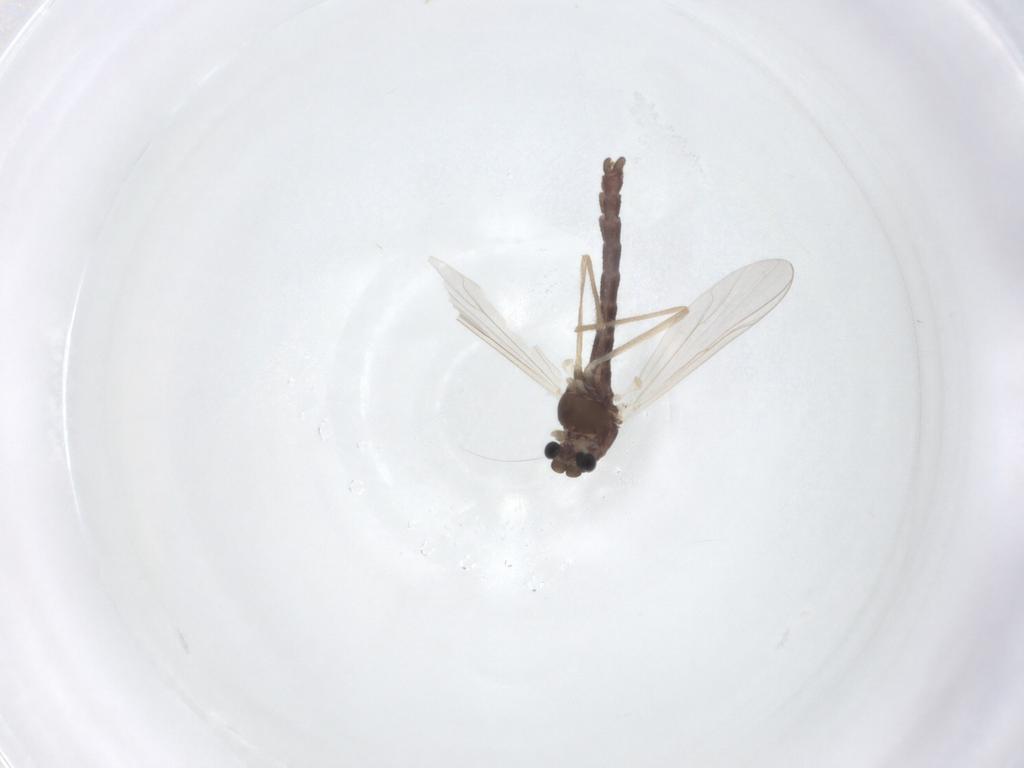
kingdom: Animalia
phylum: Arthropoda
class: Insecta
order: Diptera
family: Chironomidae
